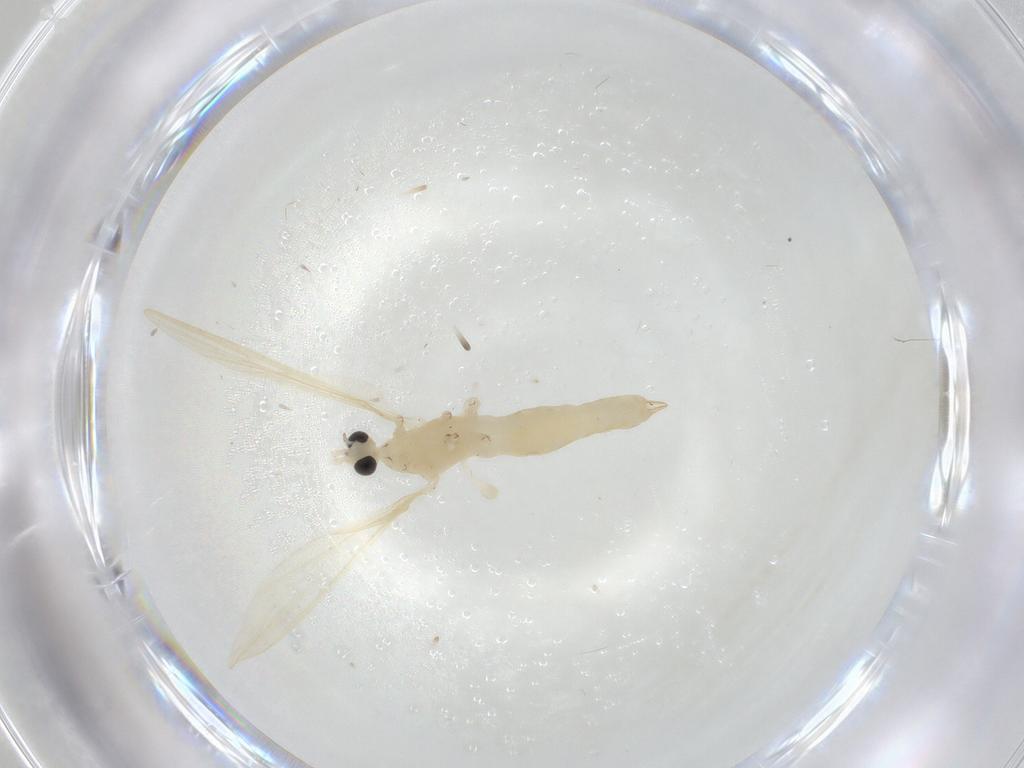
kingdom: Animalia
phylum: Arthropoda
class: Insecta
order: Diptera
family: Limoniidae
